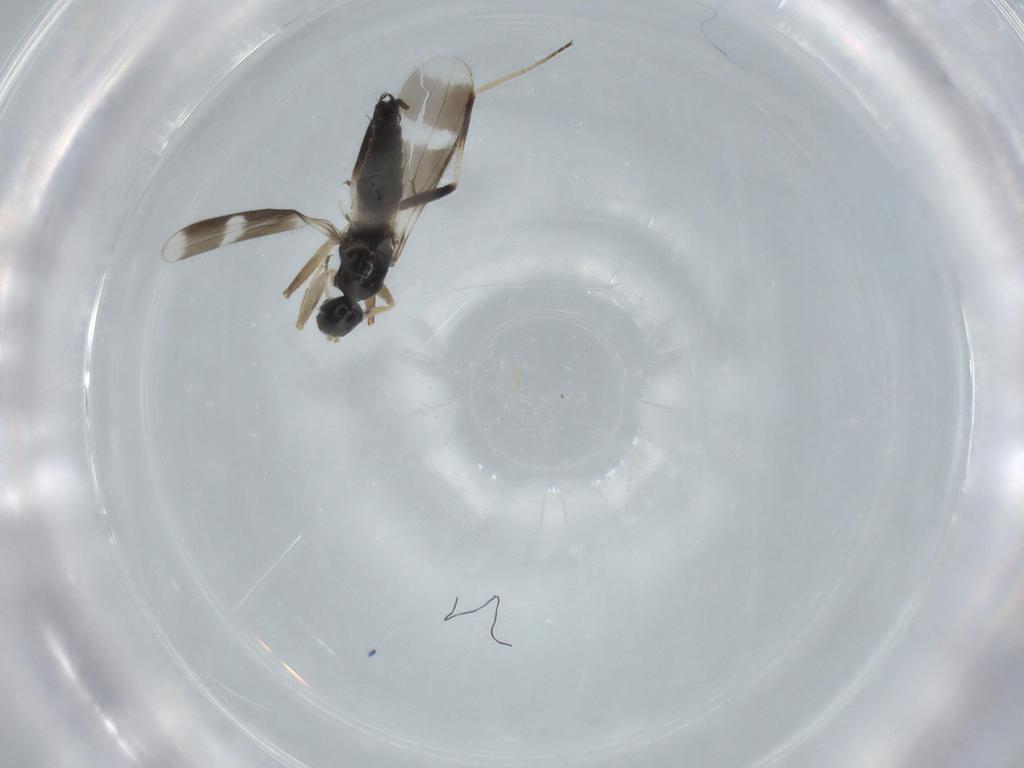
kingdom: Animalia
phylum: Arthropoda
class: Insecta
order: Diptera
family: Hybotidae
